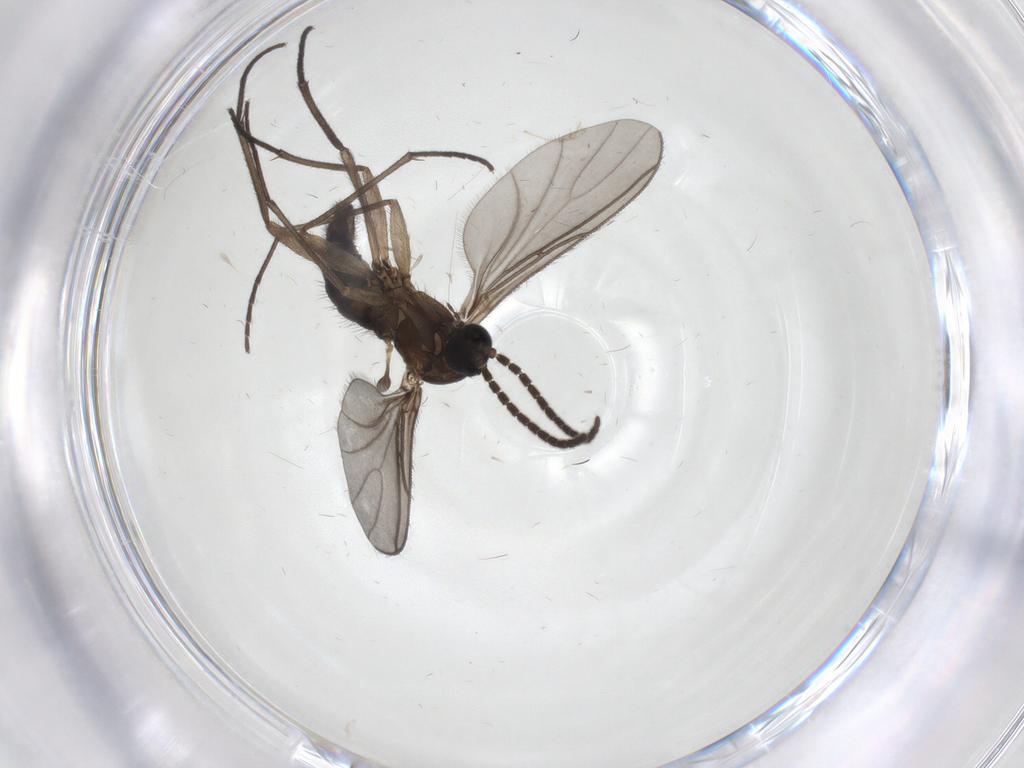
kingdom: Animalia
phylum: Arthropoda
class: Insecta
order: Diptera
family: Sciaridae
